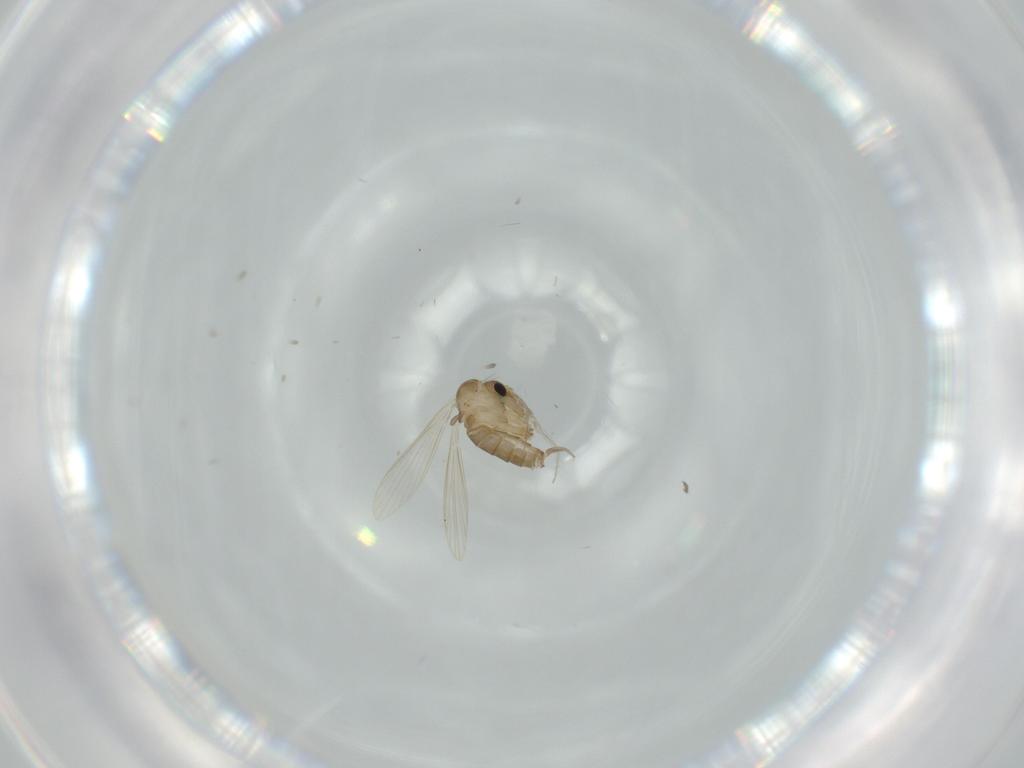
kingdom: Animalia
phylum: Arthropoda
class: Insecta
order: Diptera
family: Psychodidae
